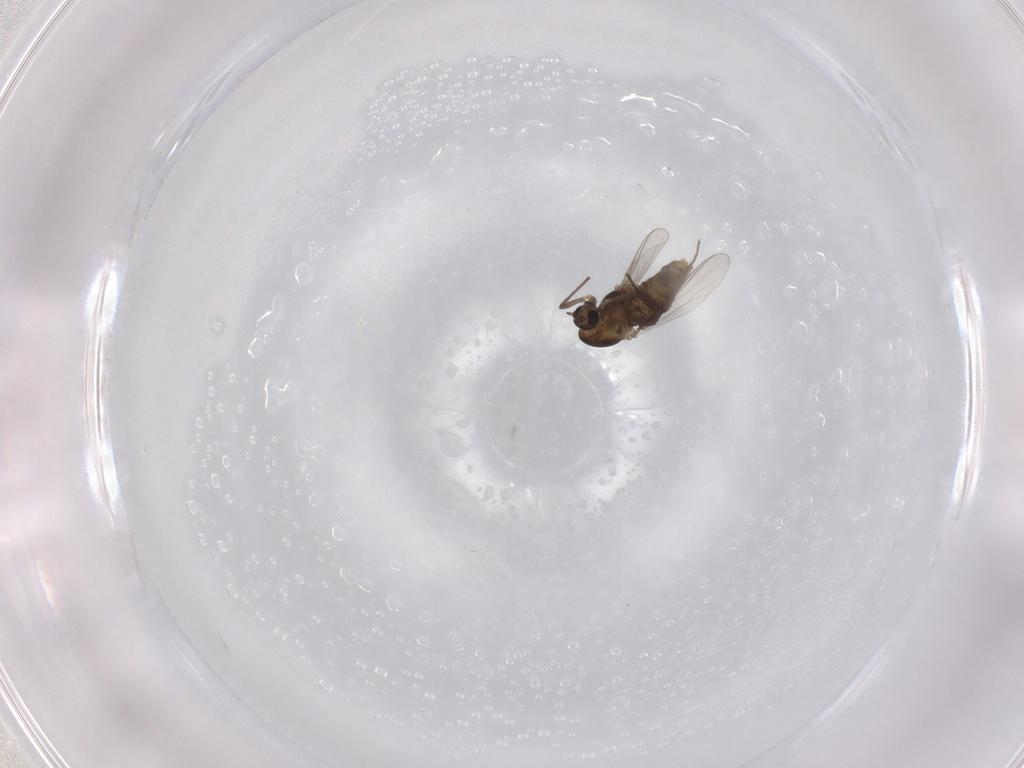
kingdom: Animalia
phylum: Arthropoda
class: Insecta
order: Diptera
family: Chironomidae
